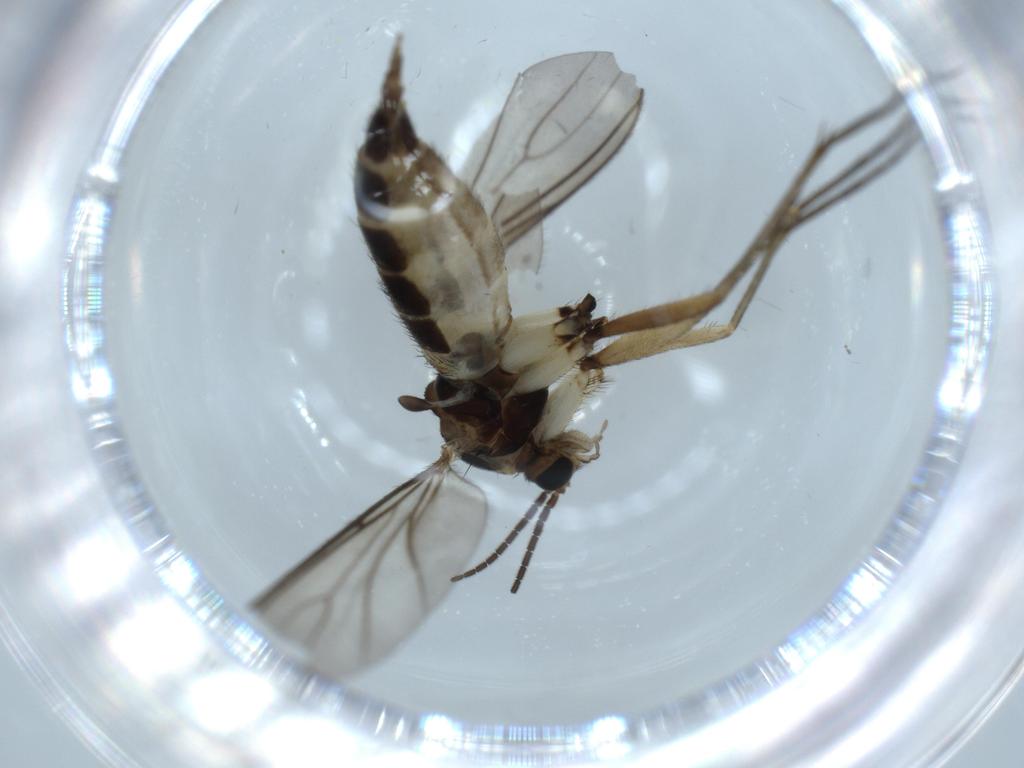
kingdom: Animalia
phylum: Arthropoda
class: Insecta
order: Diptera
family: Sciaridae
